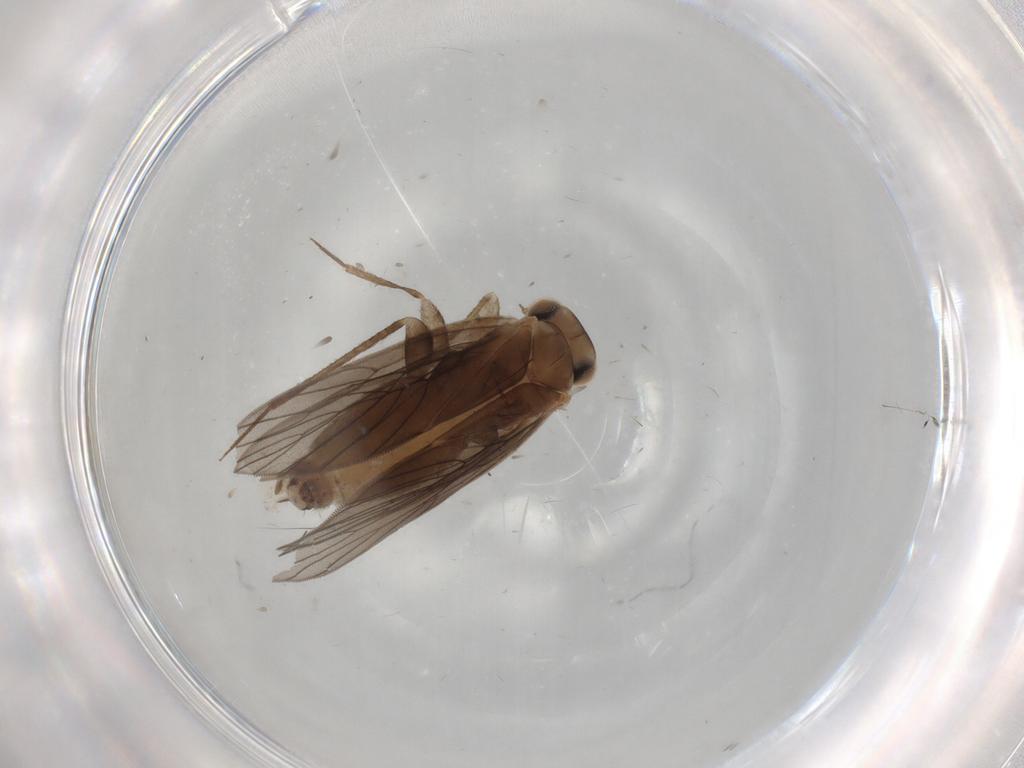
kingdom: Animalia
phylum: Arthropoda
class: Insecta
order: Psocodea
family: Lepidopsocidae
